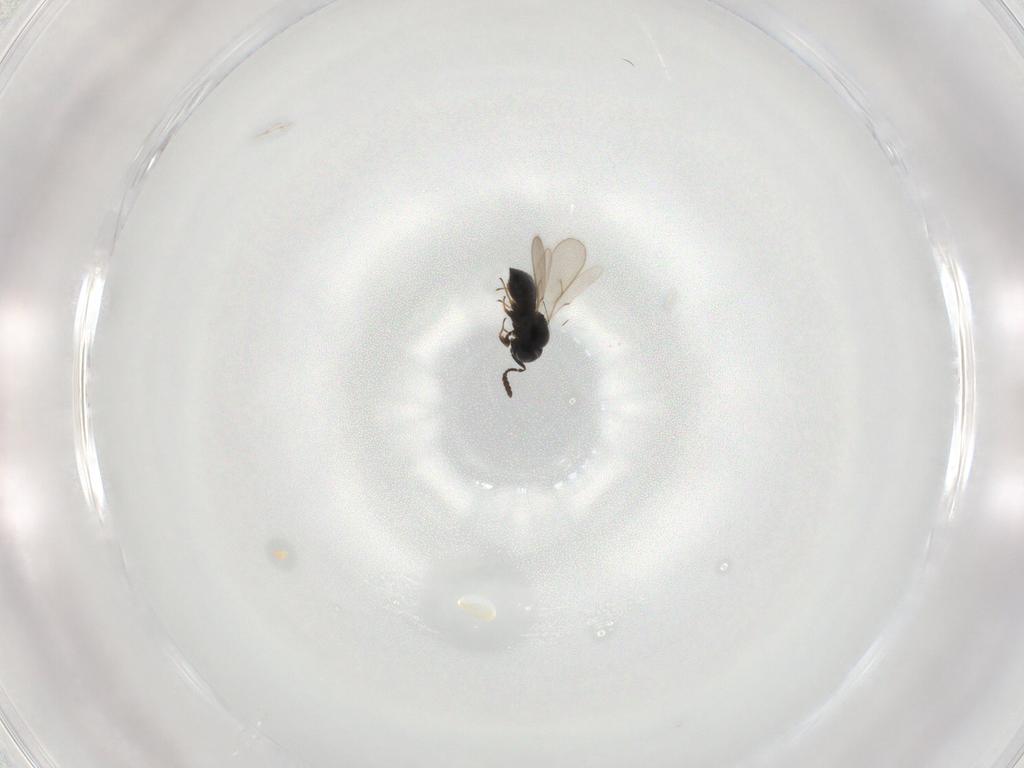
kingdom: Animalia
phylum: Arthropoda
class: Insecta
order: Hymenoptera
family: Scelionidae
